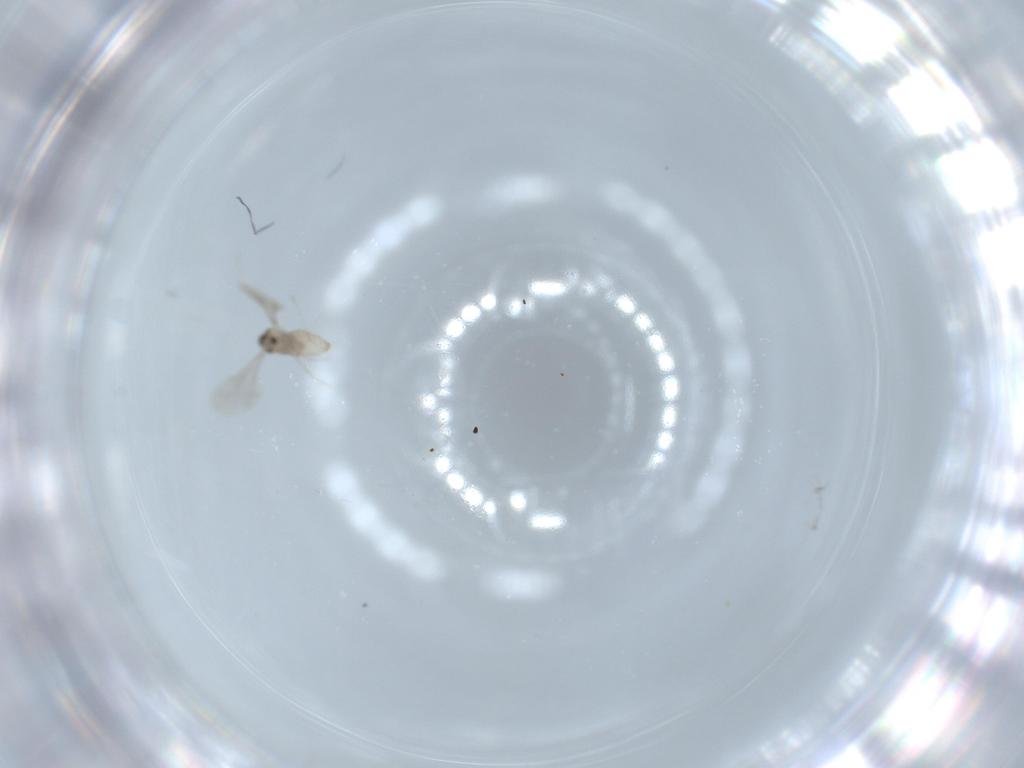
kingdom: Animalia
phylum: Arthropoda
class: Insecta
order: Diptera
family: Cecidomyiidae
